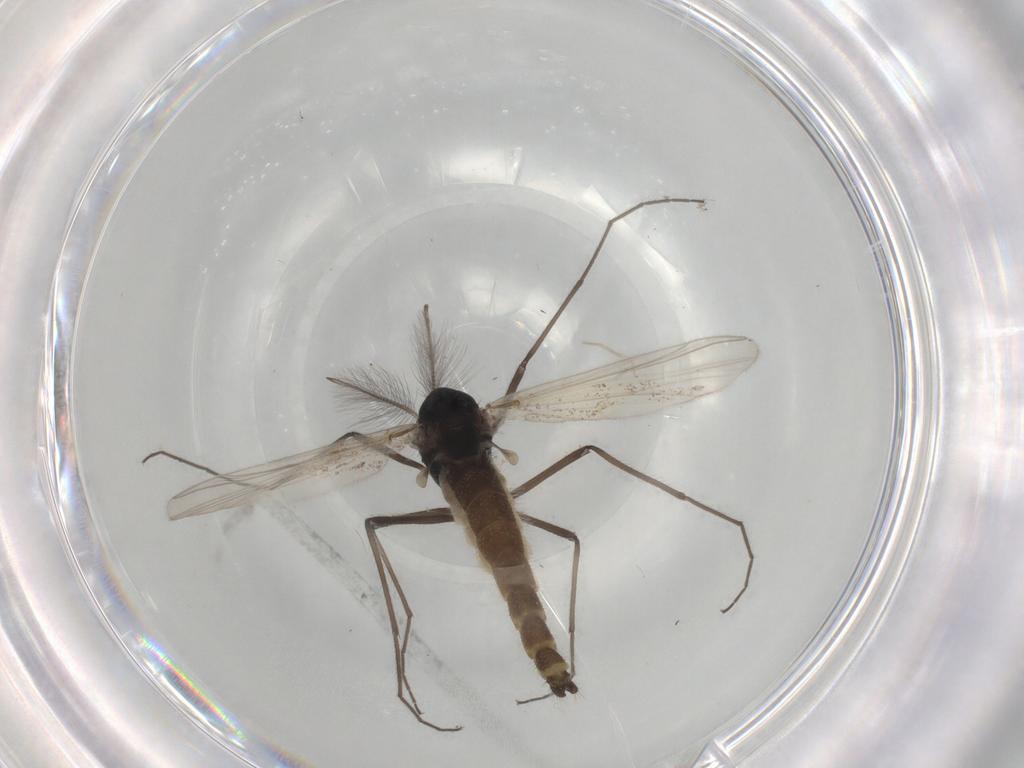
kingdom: Animalia
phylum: Arthropoda
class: Insecta
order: Diptera
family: Chironomidae
